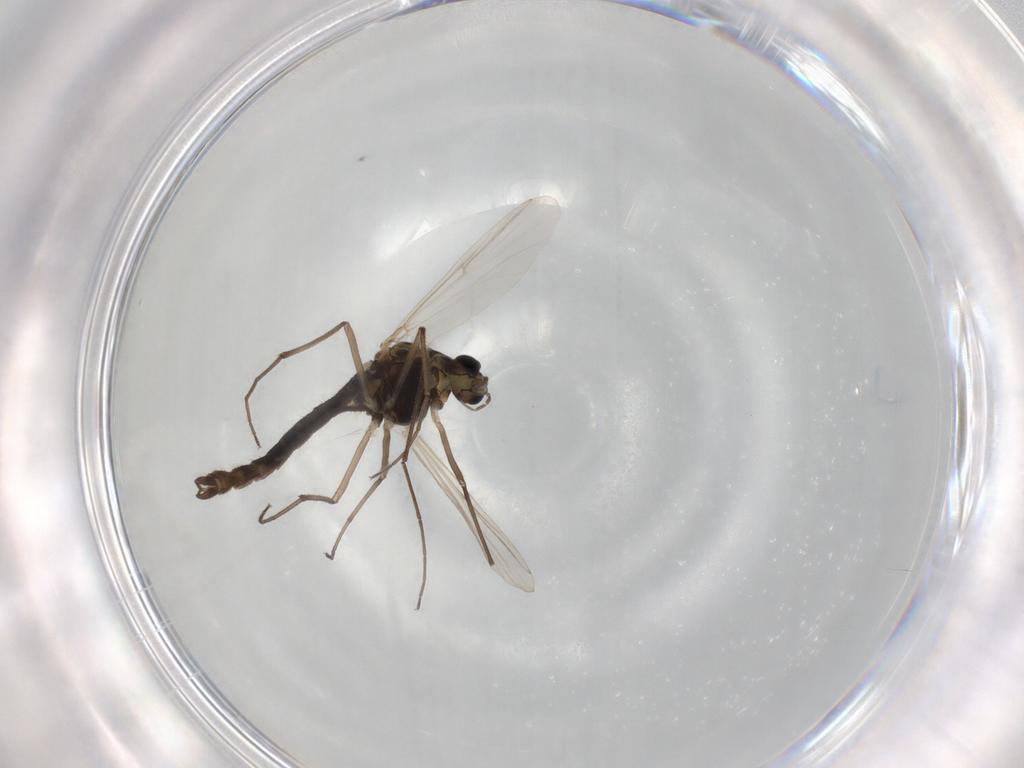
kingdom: Animalia
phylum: Arthropoda
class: Insecta
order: Diptera
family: Chironomidae
